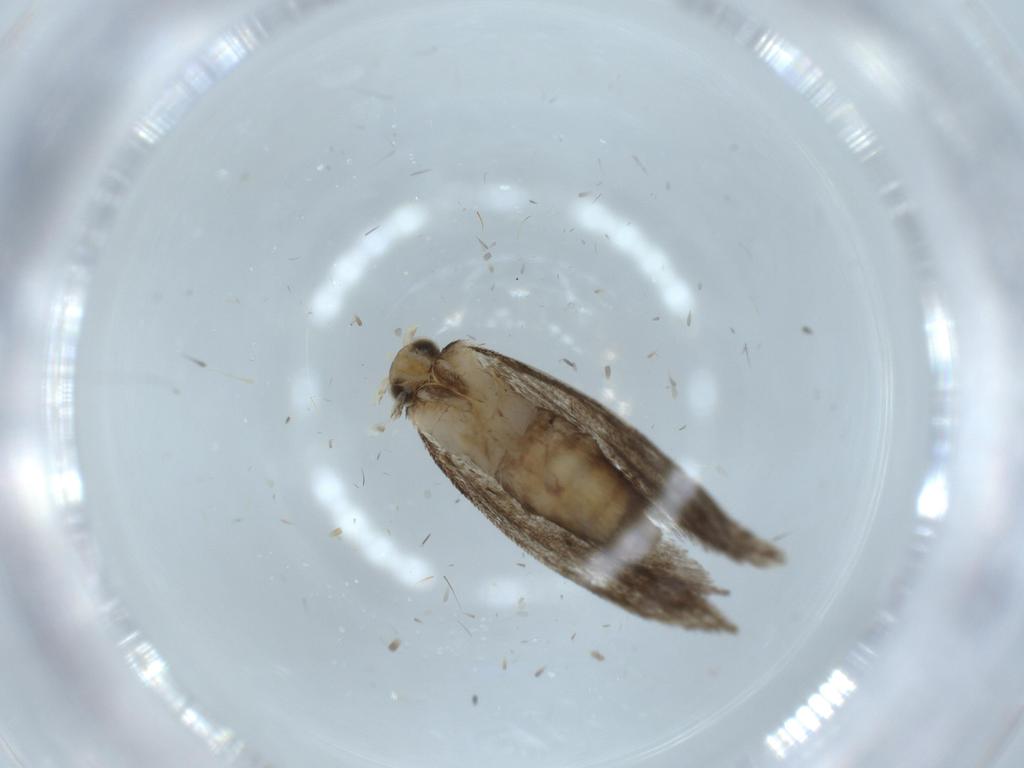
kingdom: Animalia
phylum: Arthropoda
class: Insecta
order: Lepidoptera
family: Tineidae
